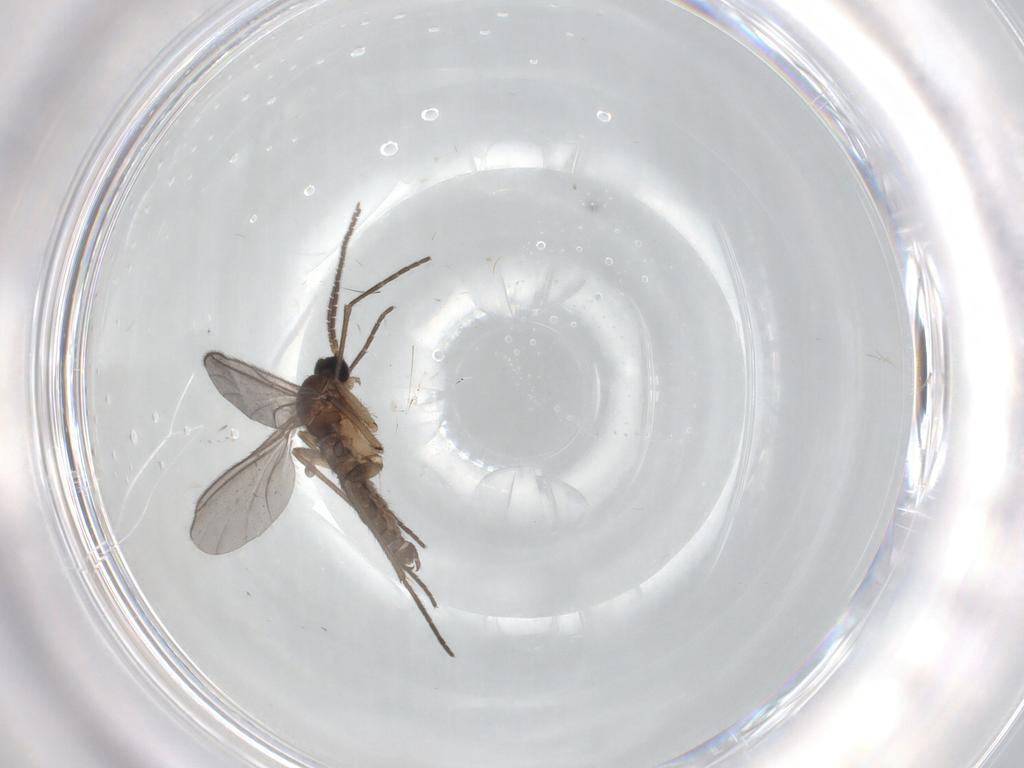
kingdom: Animalia
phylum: Arthropoda
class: Insecta
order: Diptera
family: Sciaridae
